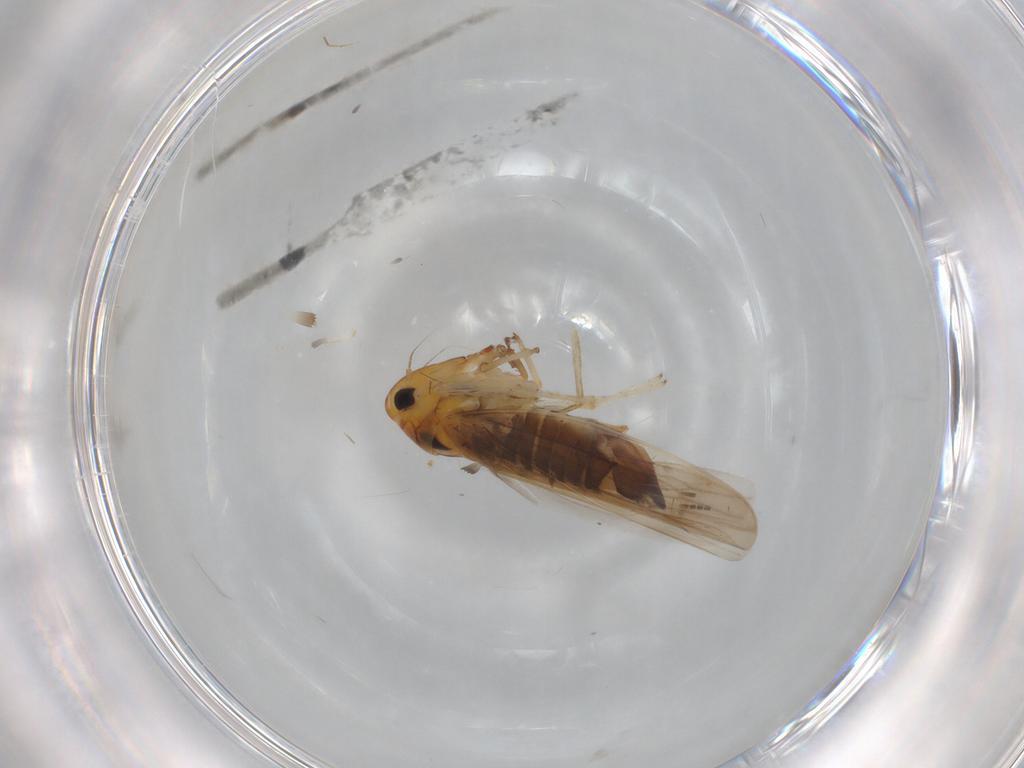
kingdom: Animalia
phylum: Arthropoda
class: Insecta
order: Hemiptera
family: Cicadellidae
